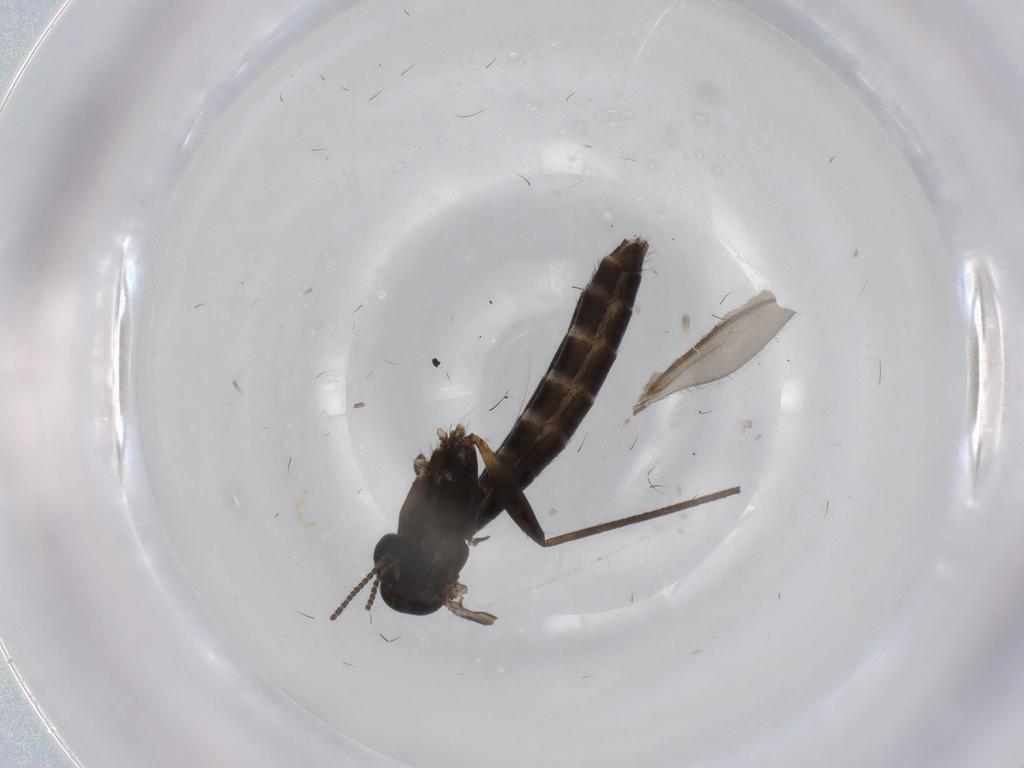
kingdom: Animalia
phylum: Arthropoda
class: Insecta
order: Diptera
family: Ditomyiidae
